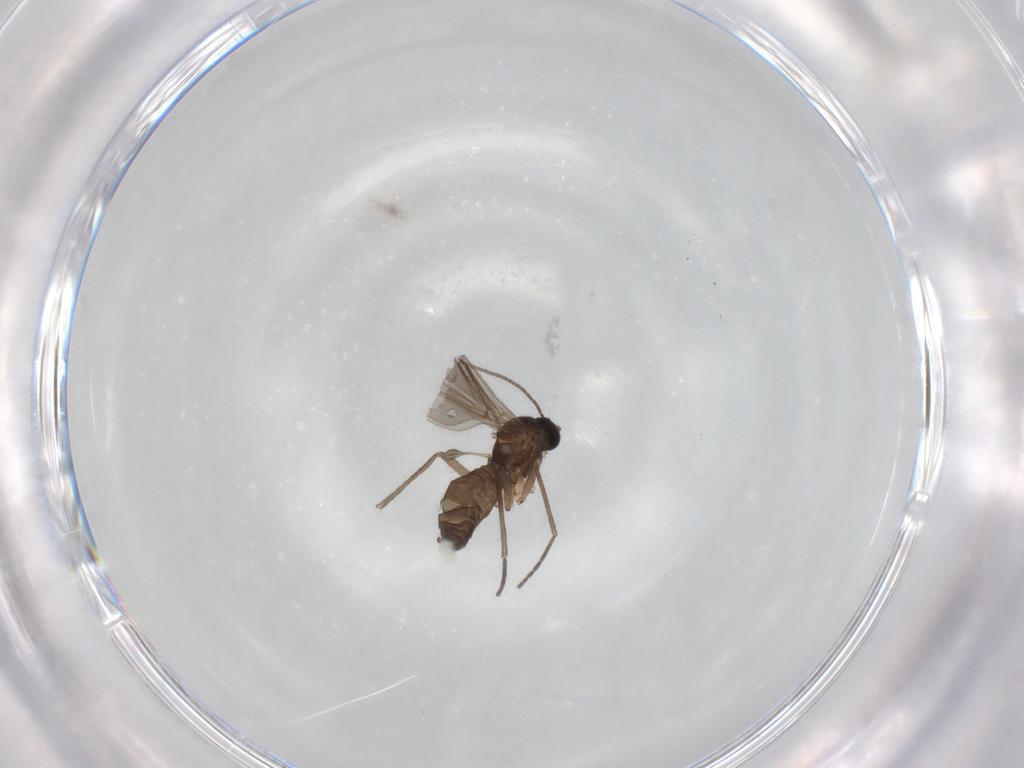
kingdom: Animalia
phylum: Arthropoda
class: Insecta
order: Diptera
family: Sciaridae
